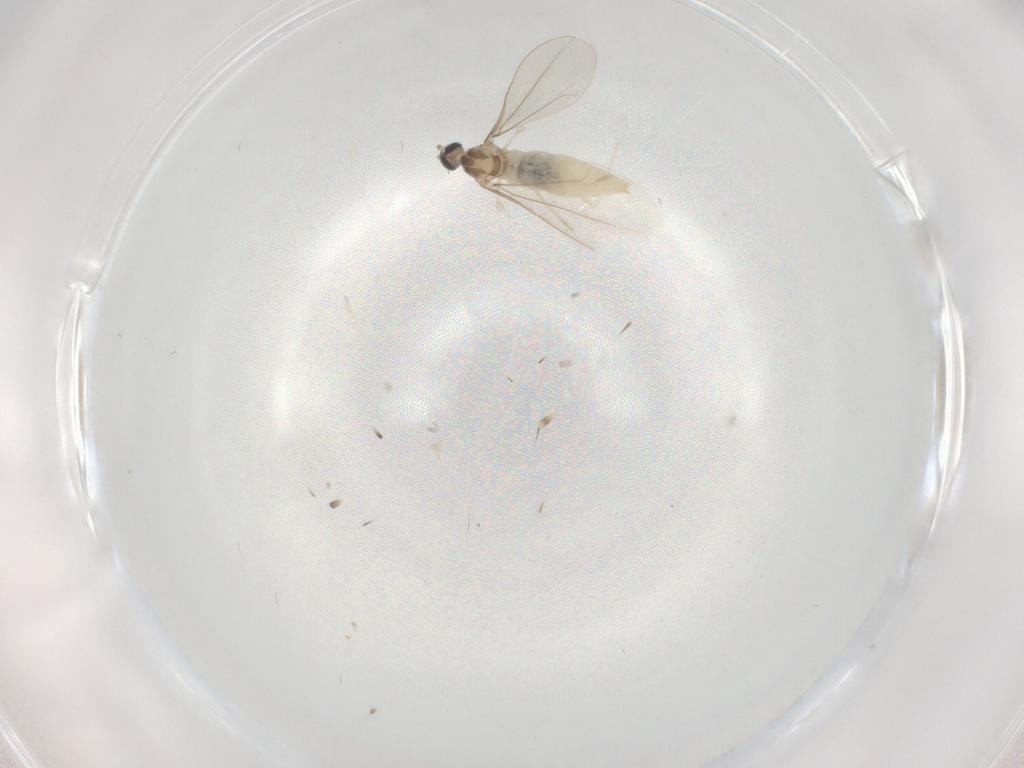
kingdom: Animalia
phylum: Arthropoda
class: Insecta
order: Diptera
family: Cecidomyiidae
